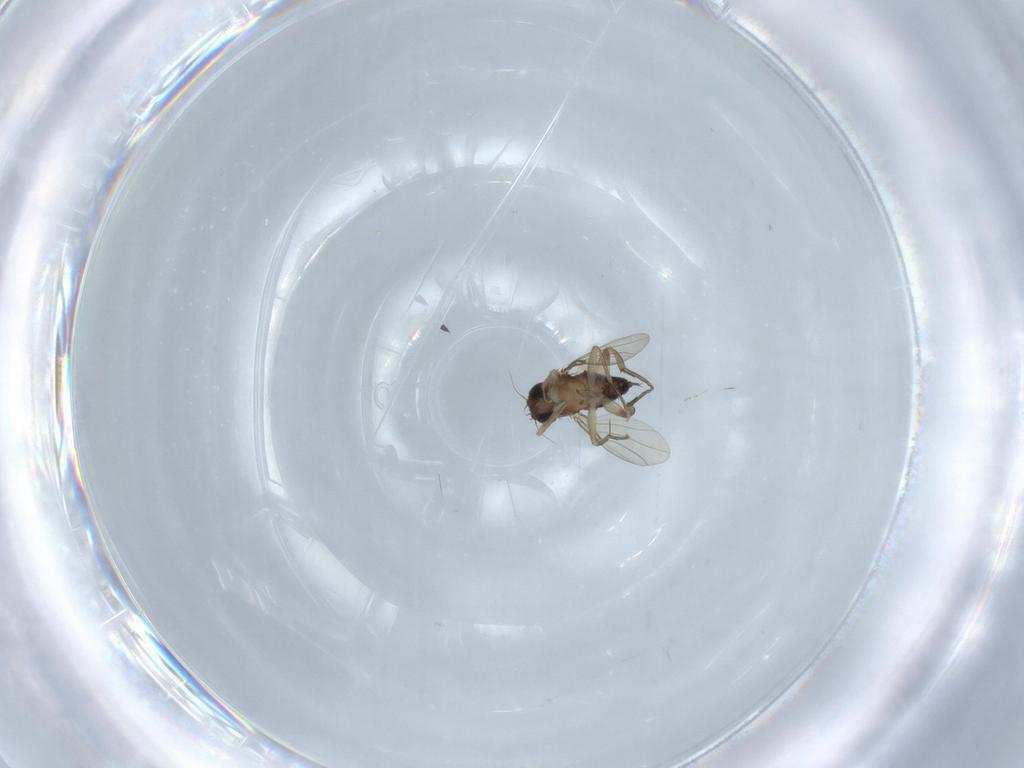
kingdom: Animalia
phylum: Arthropoda
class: Insecta
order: Diptera
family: Phoridae
